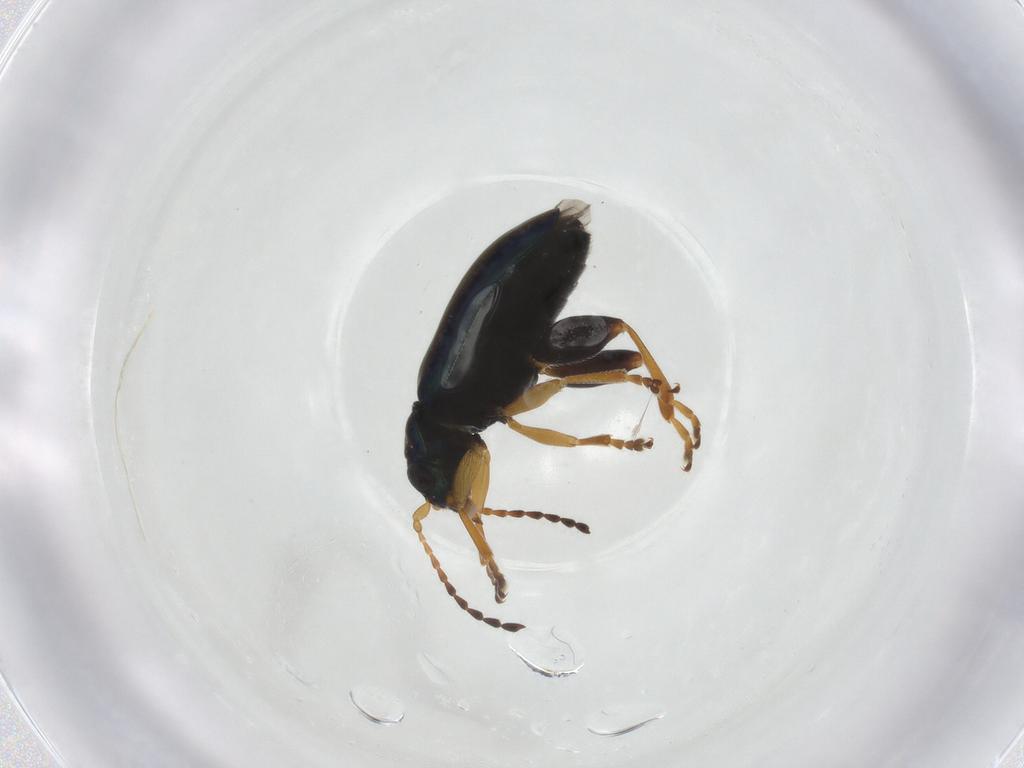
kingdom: Animalia
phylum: Arthropoda
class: Insecta
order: Coleoptera
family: Chrysomelidae
